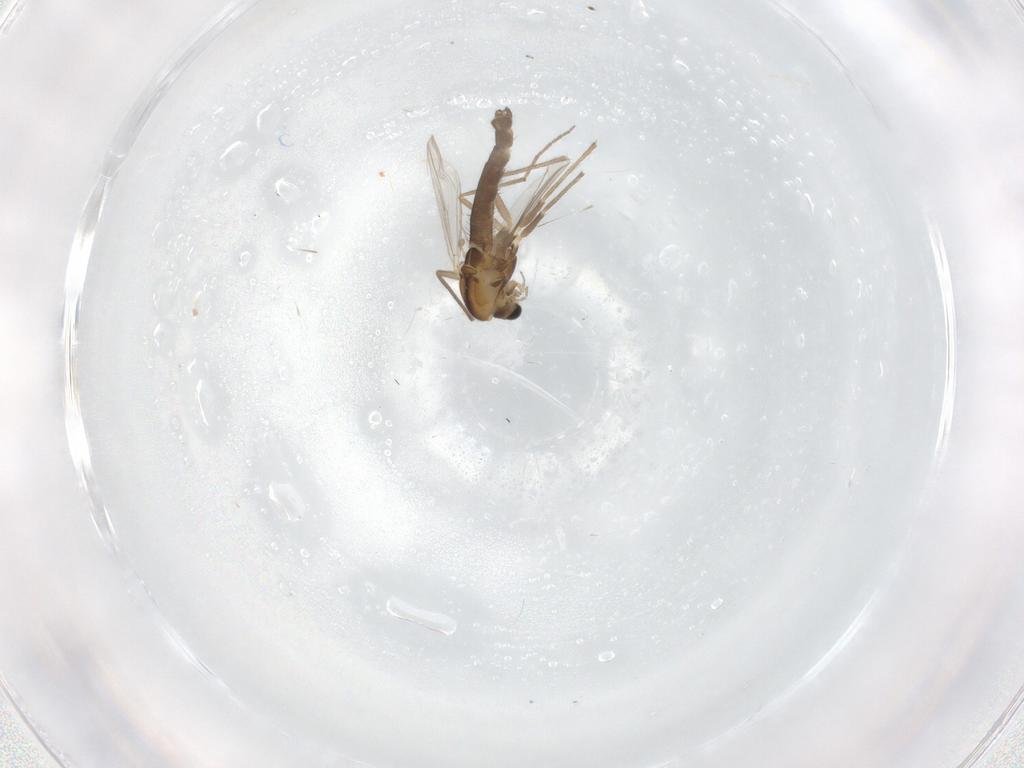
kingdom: Animalia
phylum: Arthropoda
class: Insecta
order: Diptera
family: Chironomidae
